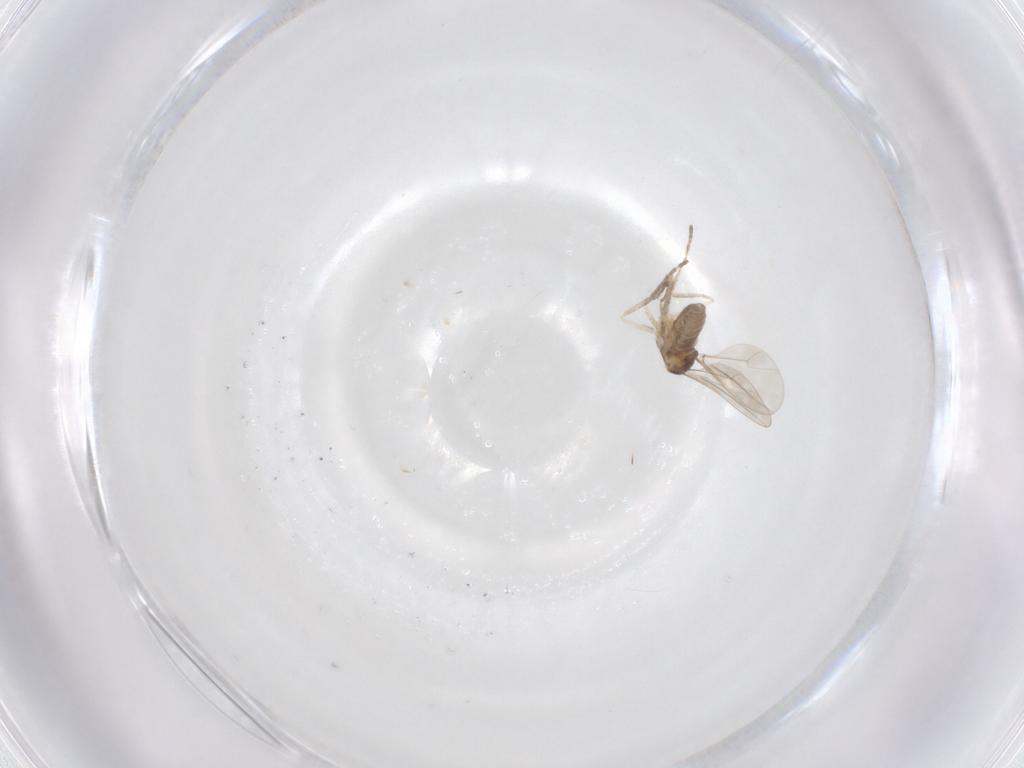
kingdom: Animalia
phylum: Arthropoda
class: Insecta
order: Diptera
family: Cecidomyiidae
